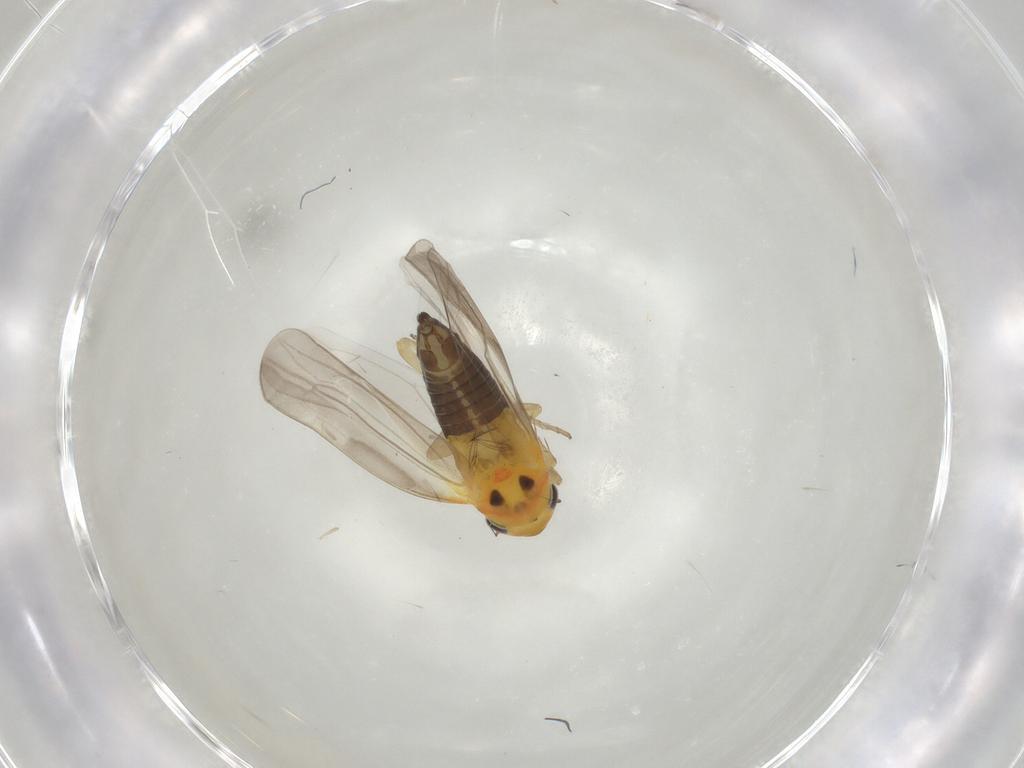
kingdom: Animalia
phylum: Arthropoda
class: Insecta
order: Hemiptera
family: Cicadellidae
